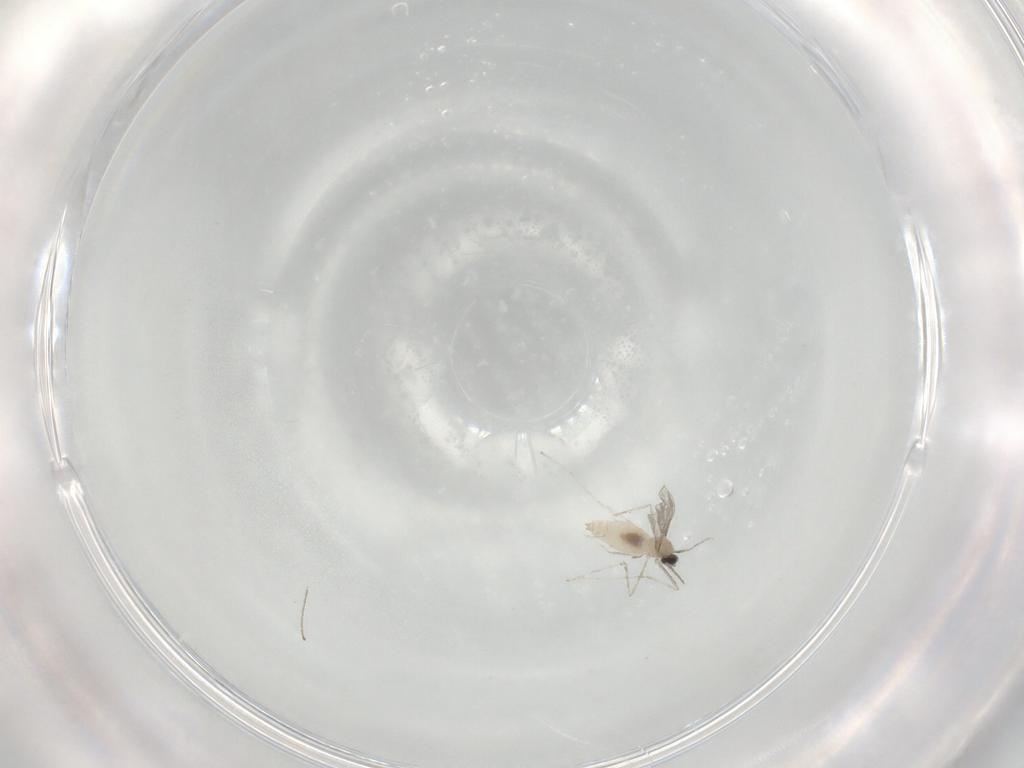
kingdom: Animalia
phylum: Arthropoda
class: Insecta
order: Diptera
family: Cecidomyiidae
